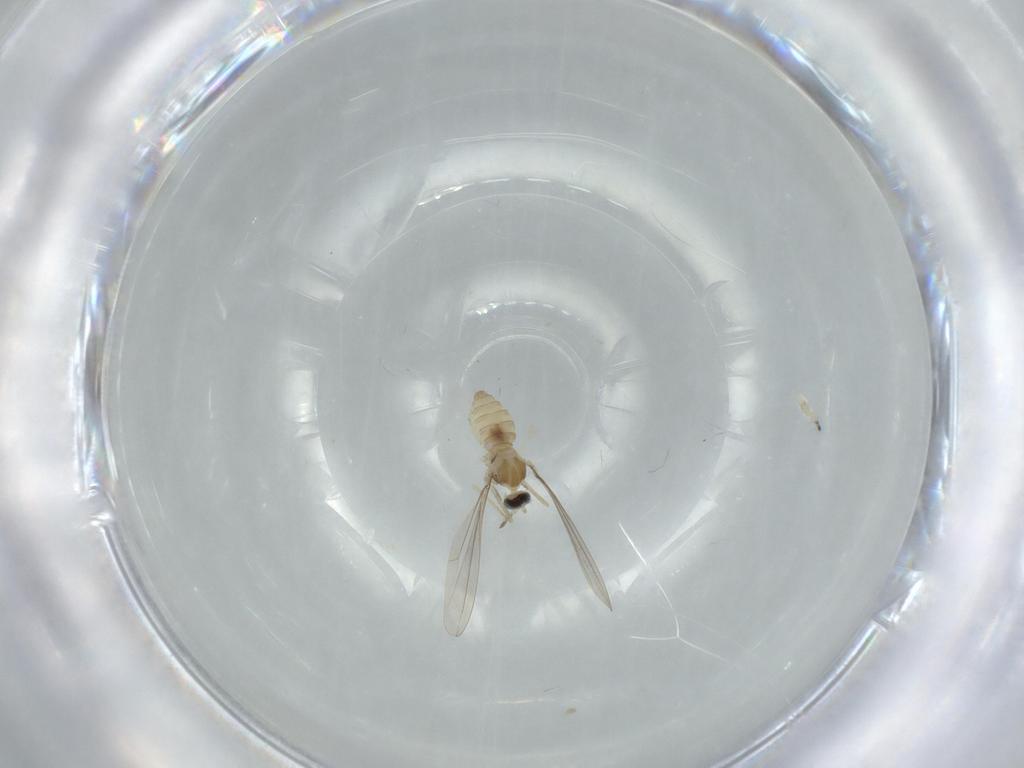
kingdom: Animalia
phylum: Arthropoda
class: Insecta
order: Diptera
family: Cecidomyiidae
